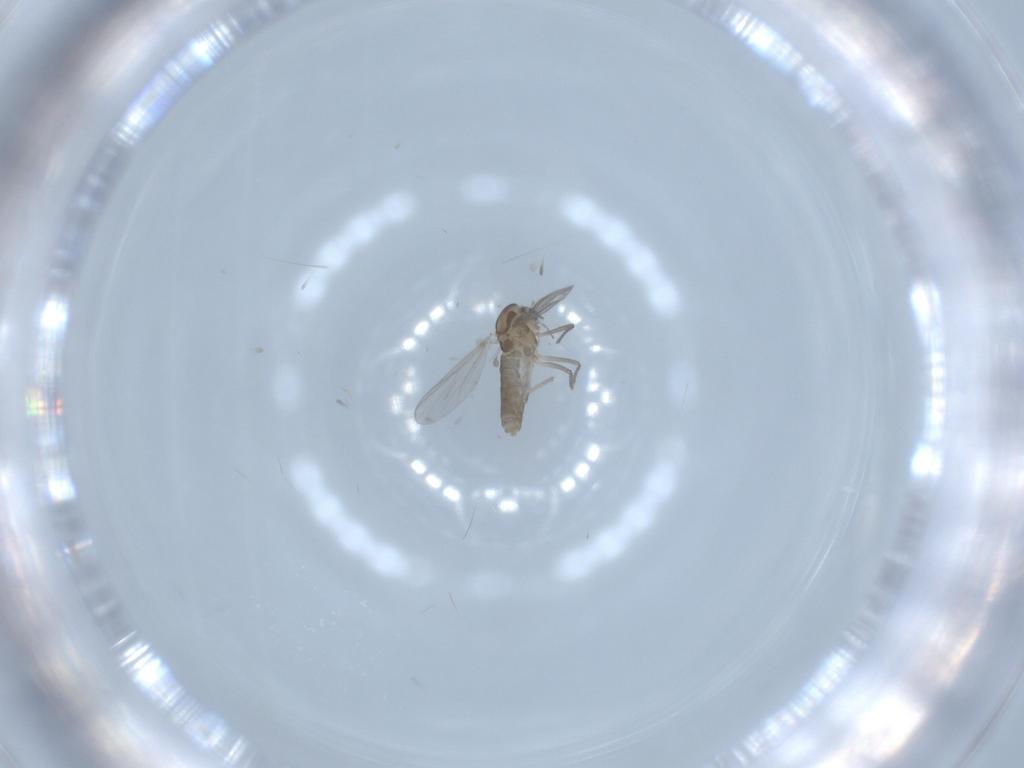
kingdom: Animalia
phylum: Arthropoda
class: Insecta
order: Diptera
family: Chironomidae
